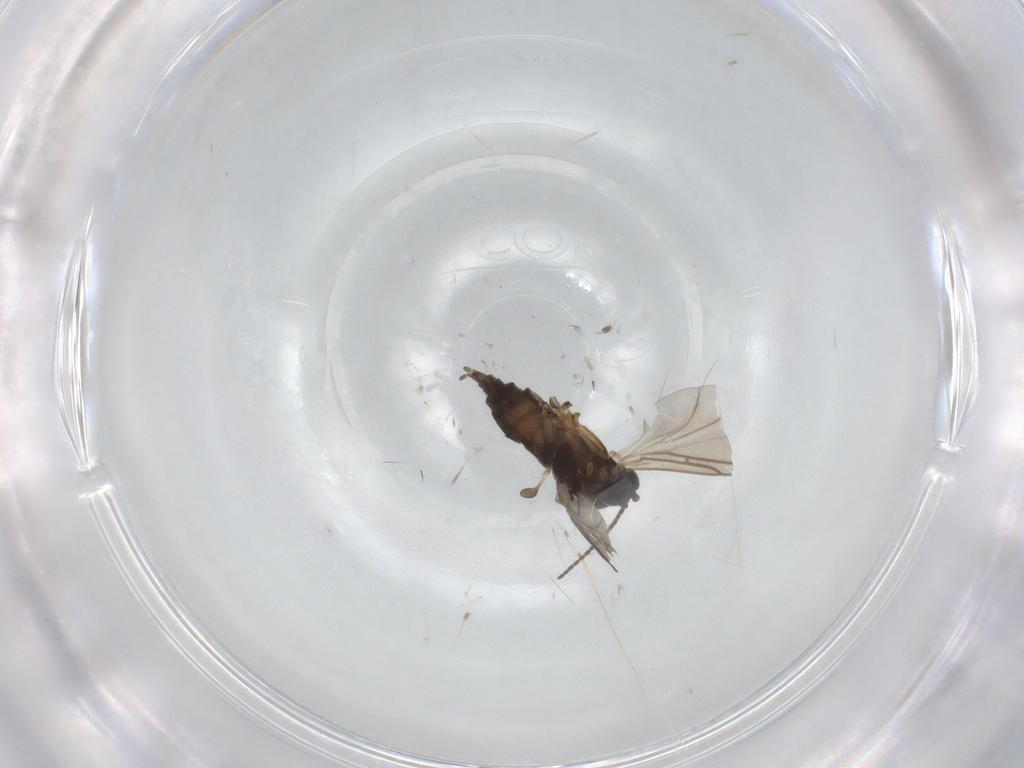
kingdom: Animalia
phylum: Arthropoda
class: Insecta
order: Diptera
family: Sciaridae
